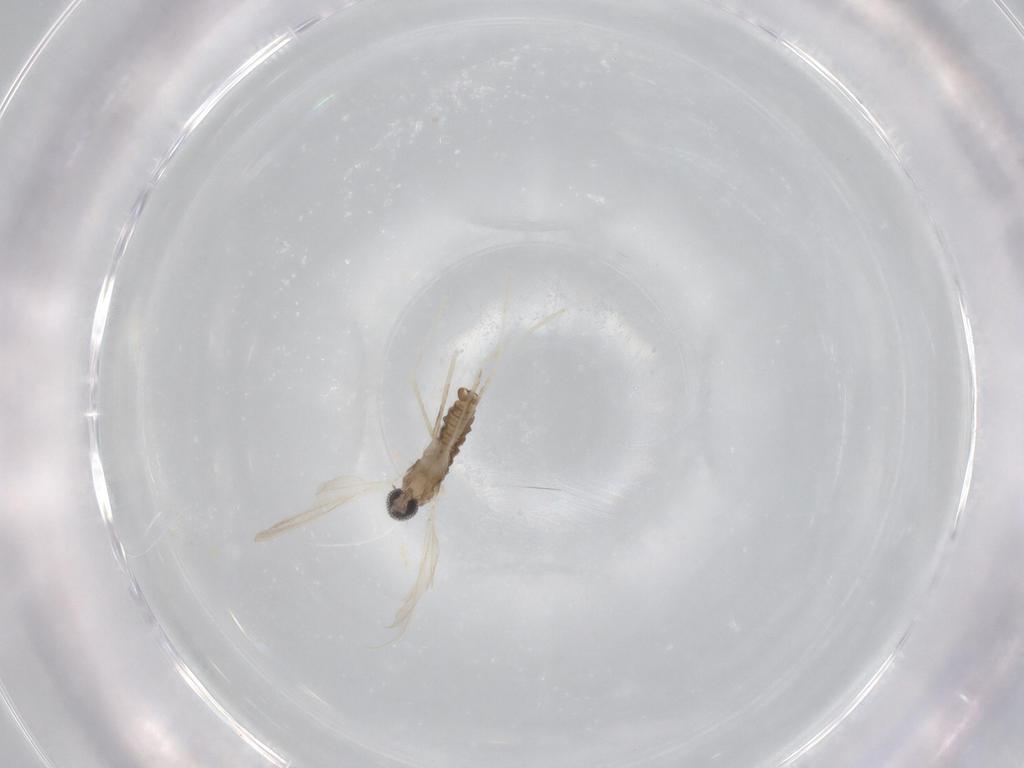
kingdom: Animalia
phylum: Arthropoda
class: Insecta
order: Diptera
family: Cecidomyiidae
